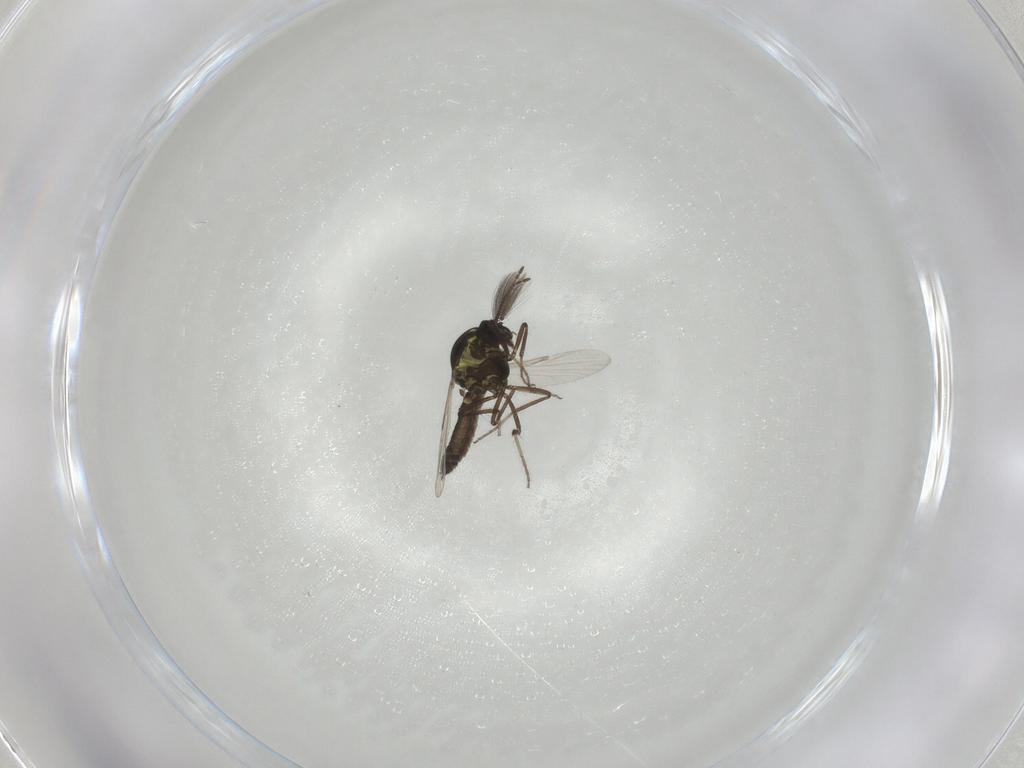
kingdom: Animalia
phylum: Arthropoda
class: Insecta
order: Diptera
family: Ceratopogonidae
